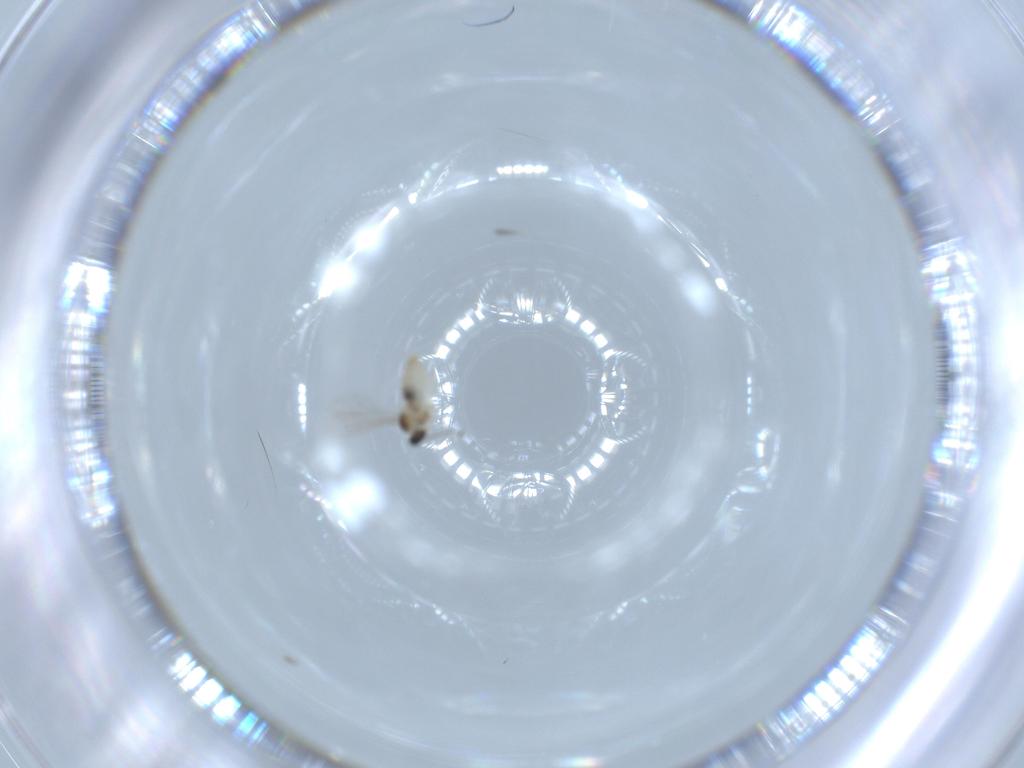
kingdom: Animalia
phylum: Arthropoda
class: Insecta
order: Diptera
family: Cecidomyiidae
